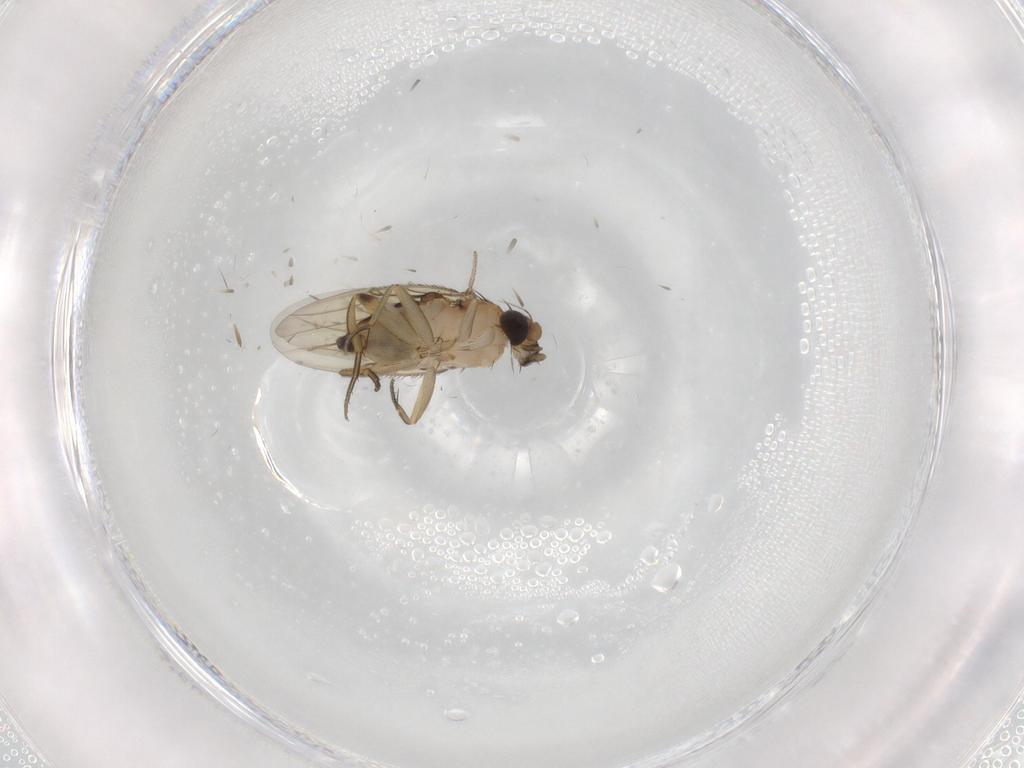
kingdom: Animalia
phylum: Arthropoda
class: Insecta
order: Diptera
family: Phoridae
